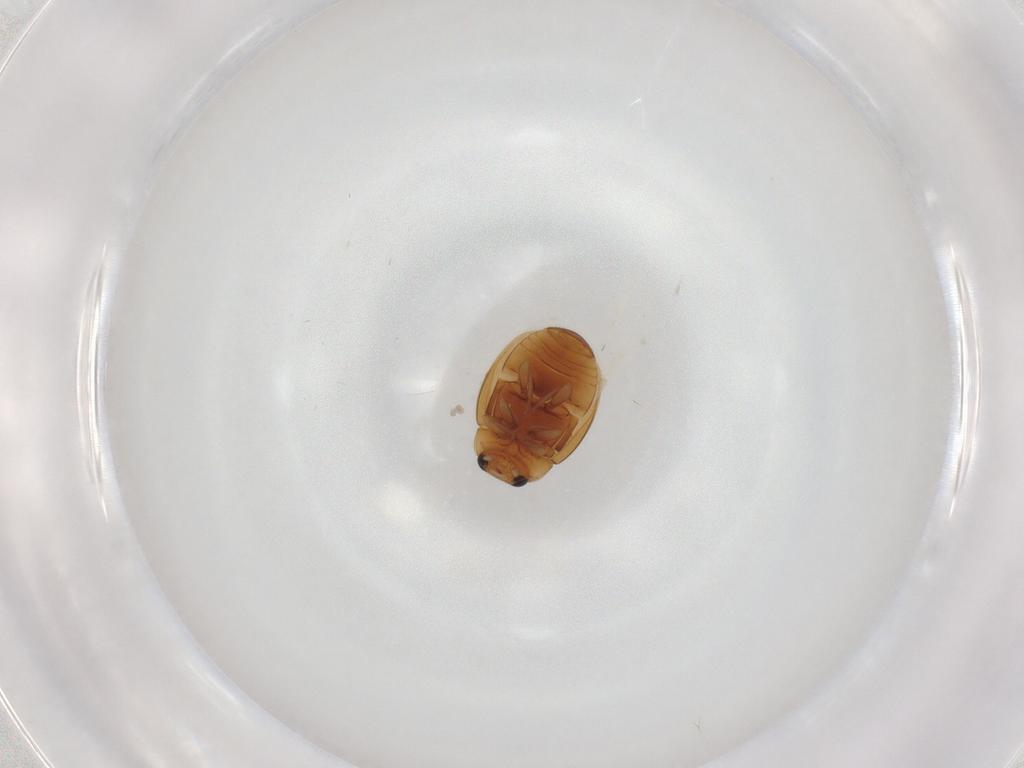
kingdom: Animalia
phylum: Arthropoda
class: Insecta
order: Coleoptera
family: Coccinellidae
